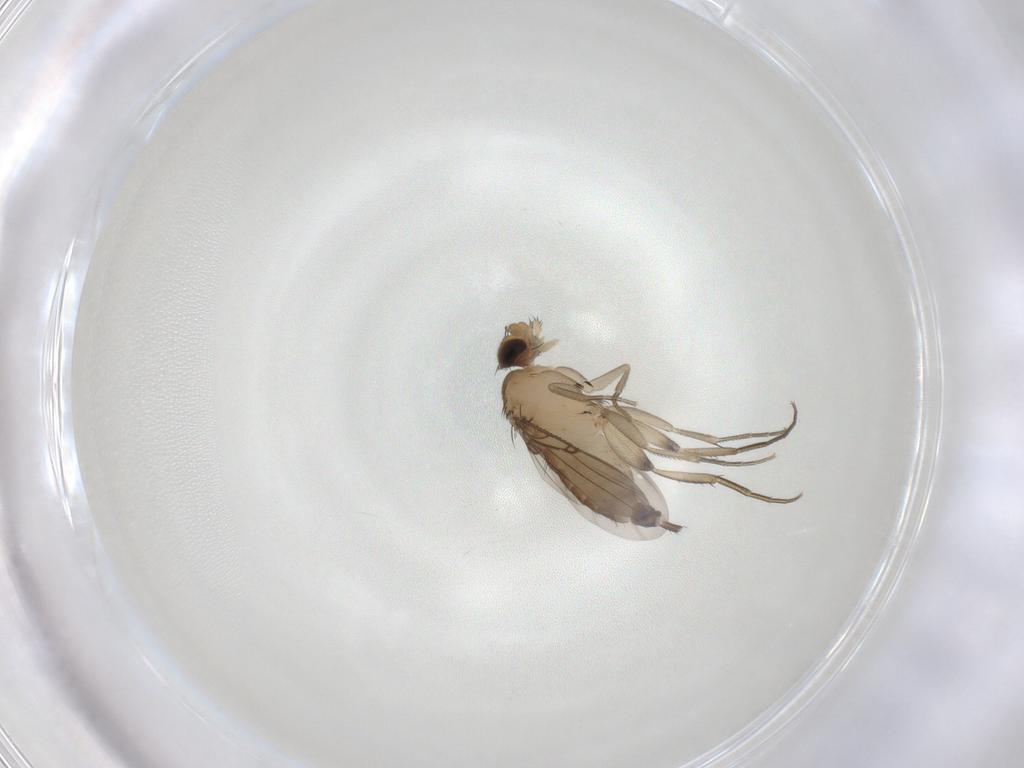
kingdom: Animalia
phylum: Arthropoda
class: Insecta
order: Diptera
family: Phoridae
